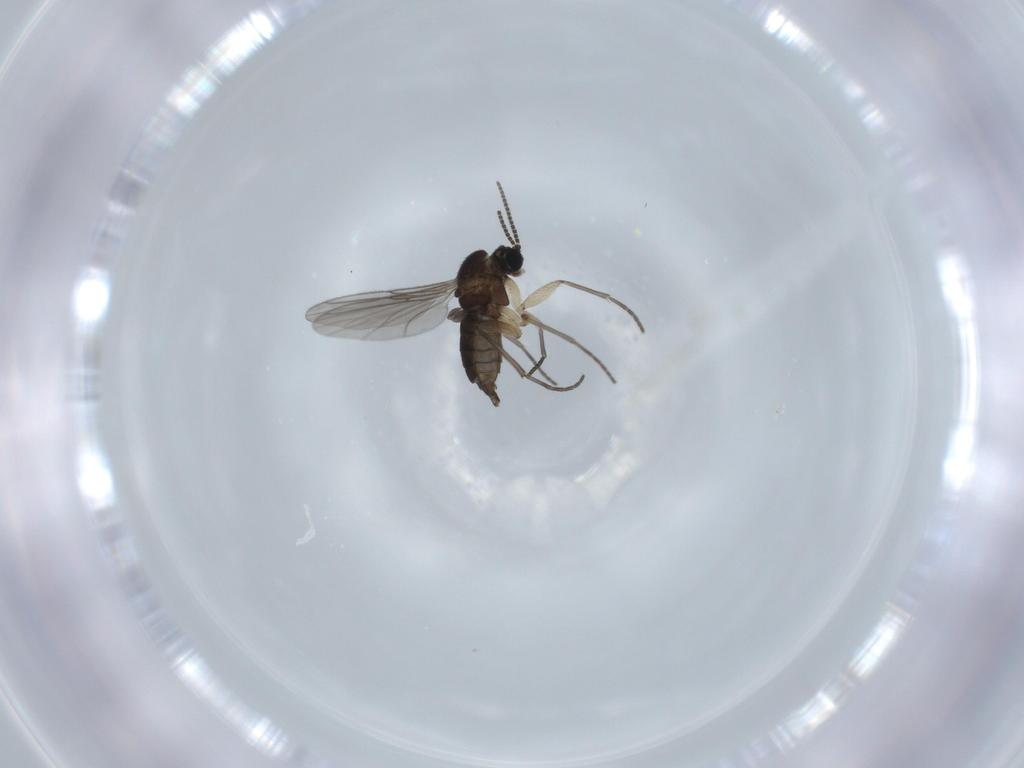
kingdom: Animalia
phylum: Arthropoda
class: Insecta
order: Diptera
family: Sciaridae
